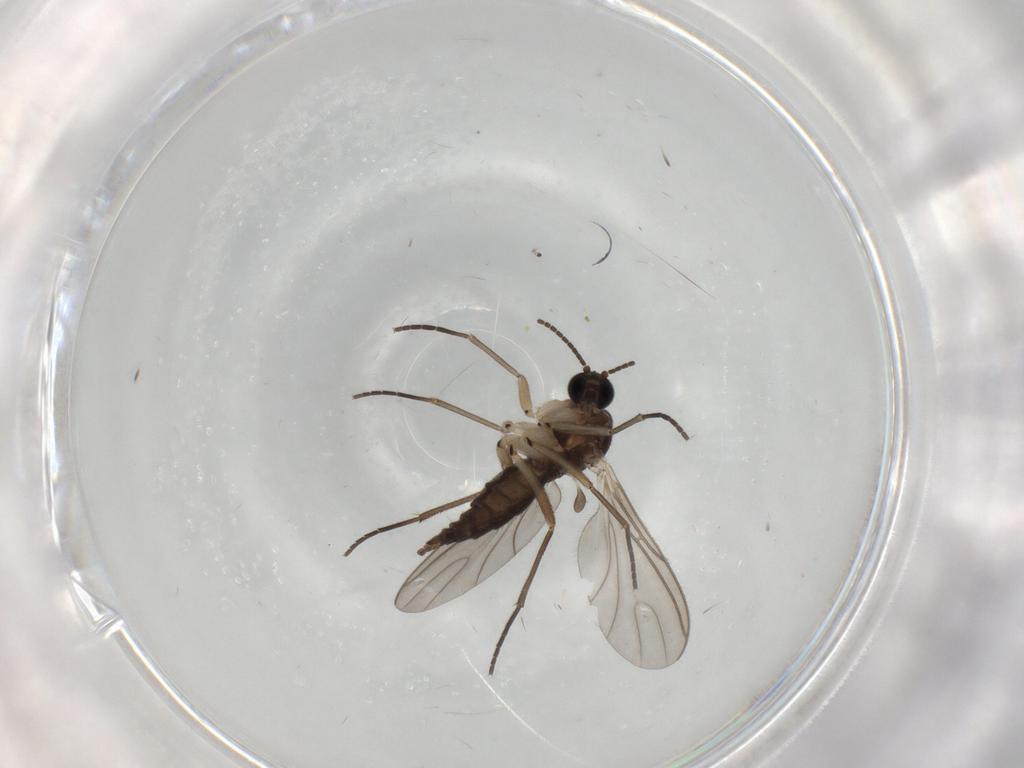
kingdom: Animalia
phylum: Arthropoda
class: Insecta
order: Diptera
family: Sciaridae
